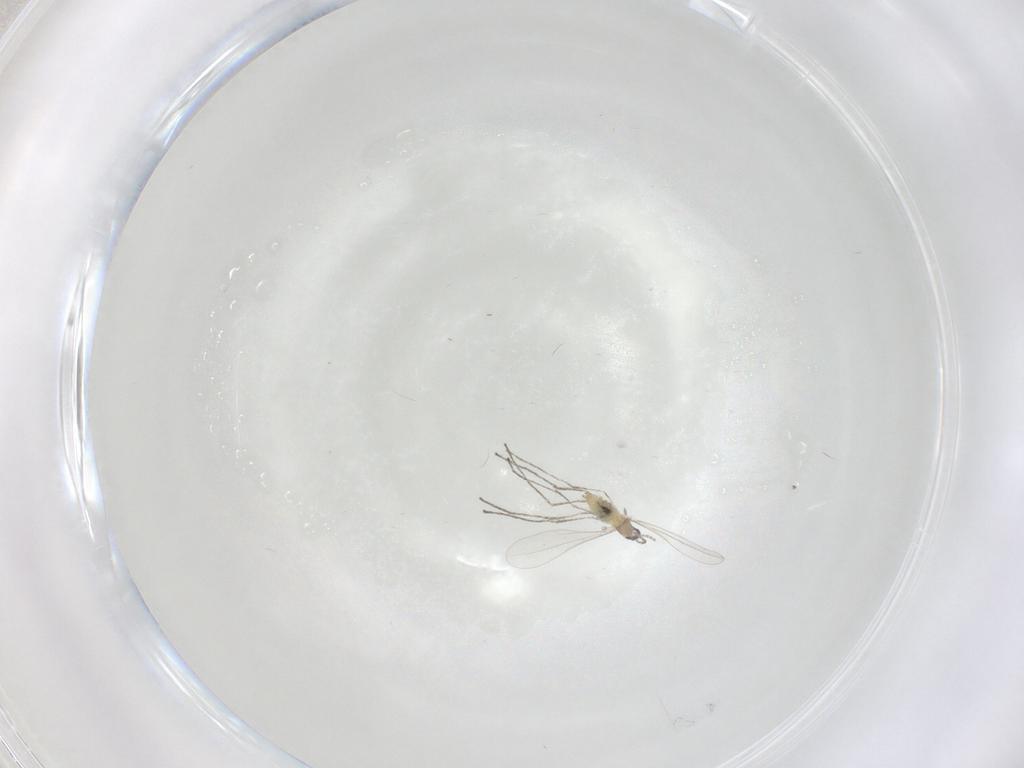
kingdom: Animalia
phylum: Arthropoda
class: Insecta
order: Diptera
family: Cecidomyiidae
